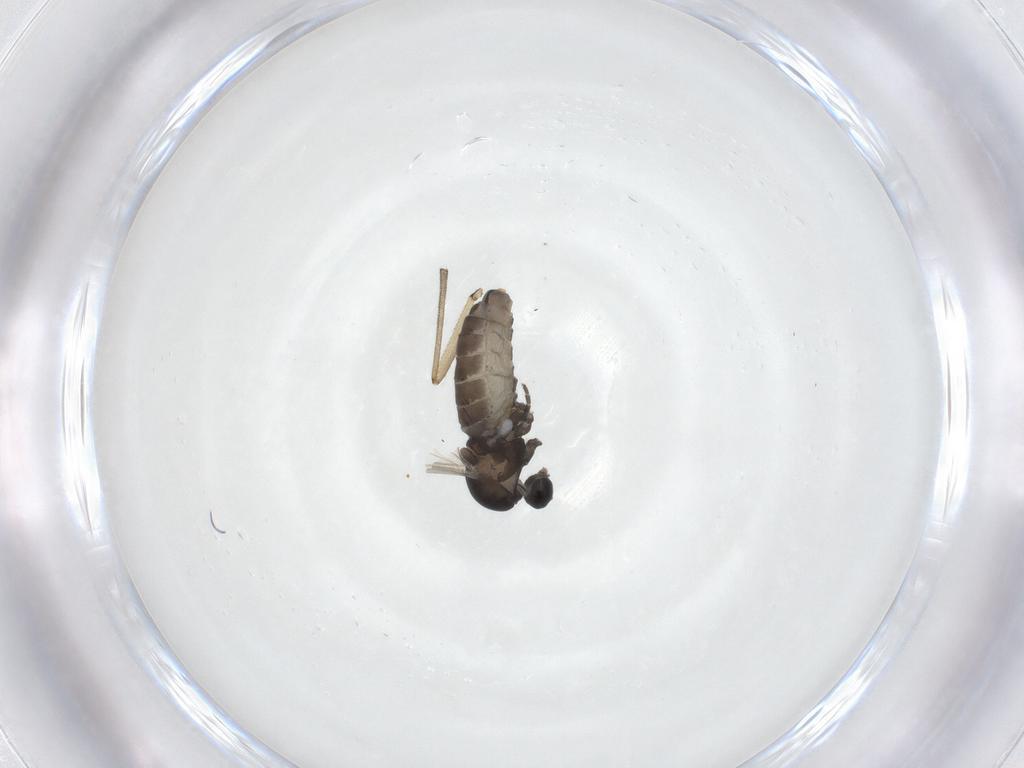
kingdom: Animalia
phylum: Arthropoda
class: Insecta
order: Diptera
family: Cecidomyiidae
